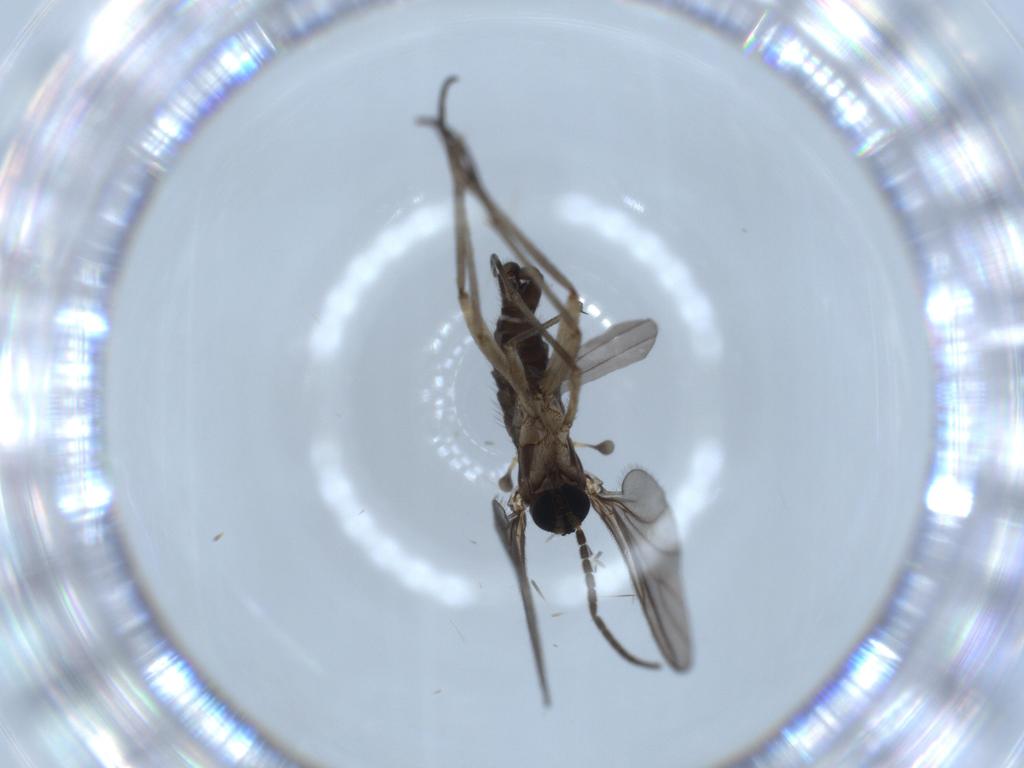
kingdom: Animalia
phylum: Arthropoda
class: Insecta
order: Diptera
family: Sciaridae
